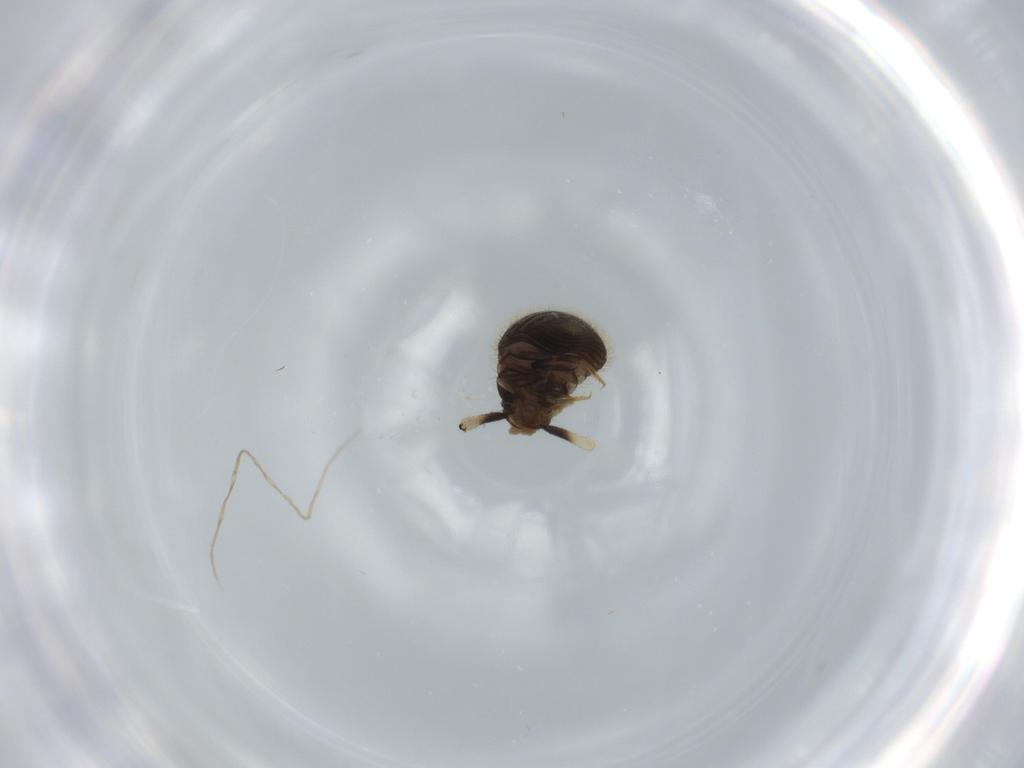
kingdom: Animalia
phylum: Arthropoda
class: Insecta
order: Coleoptera
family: Staphylinidae
